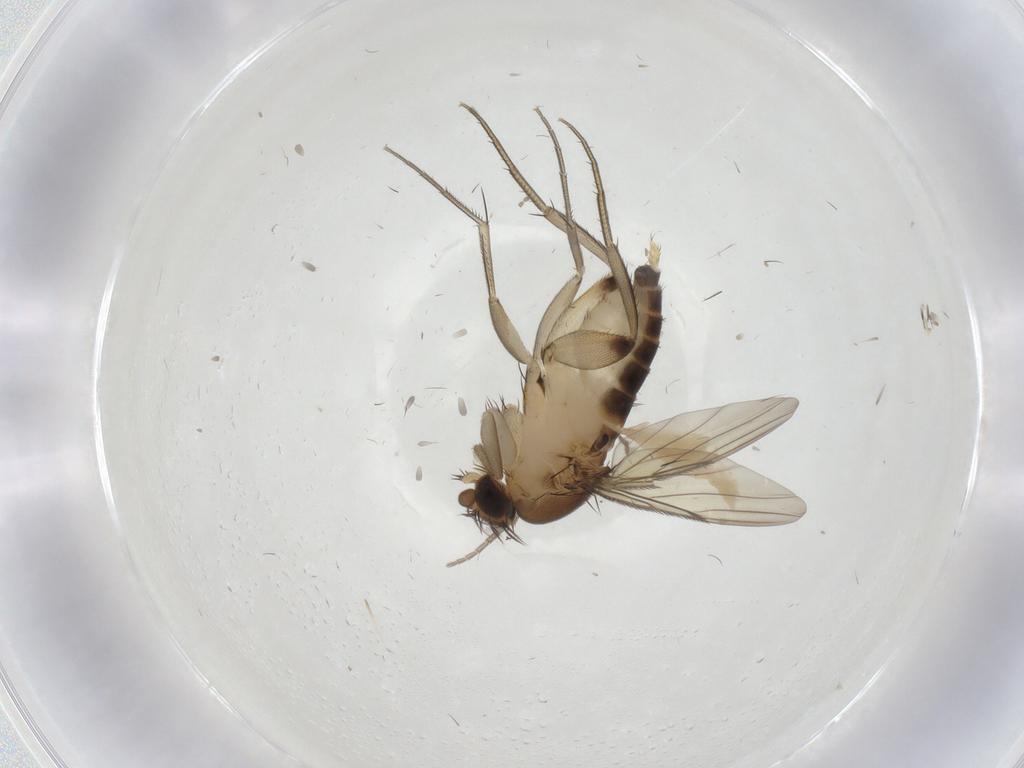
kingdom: Animalia
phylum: Arthropoda
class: Insecta
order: Diptera
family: Cecidomyiidae
